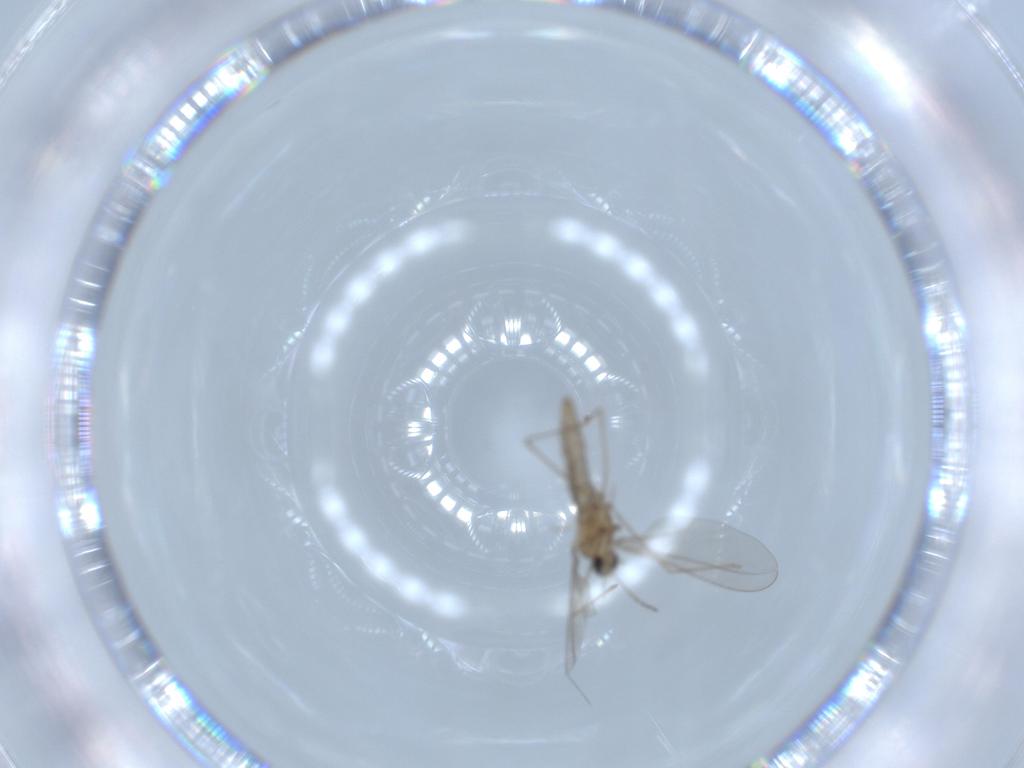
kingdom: Animalia
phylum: Arthropoda
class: Insecta
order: Diptera
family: Cecidomyiidae
